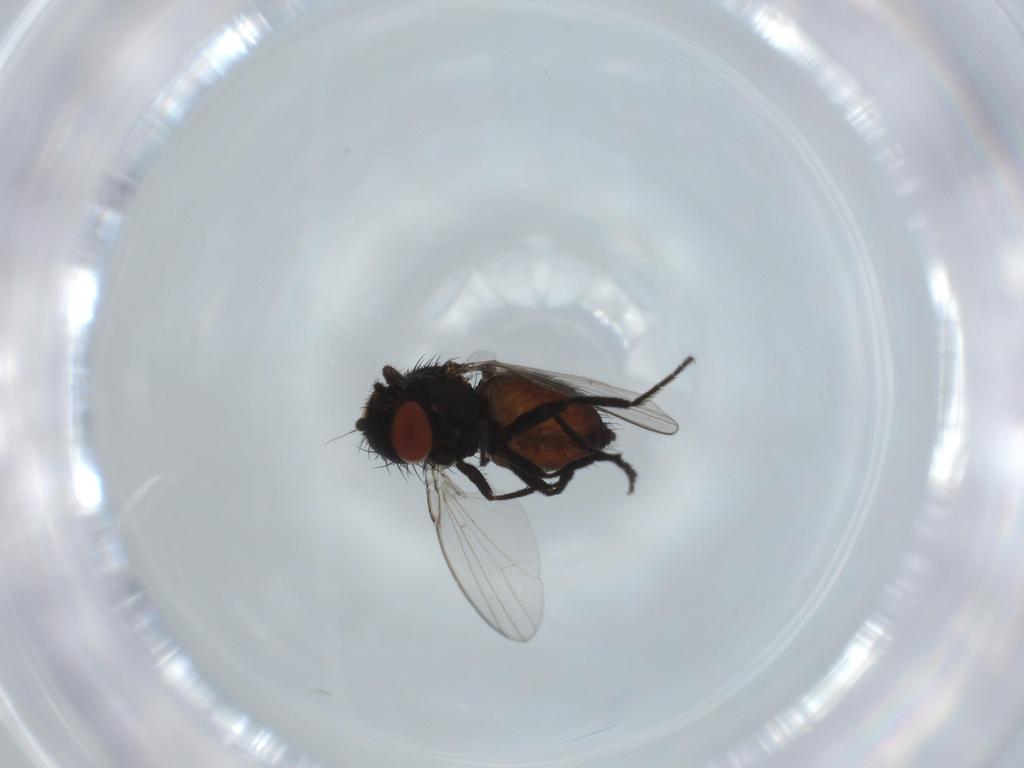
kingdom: Animalia
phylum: Arthropoda
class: Insecta
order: Diptera
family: Milichiidae
